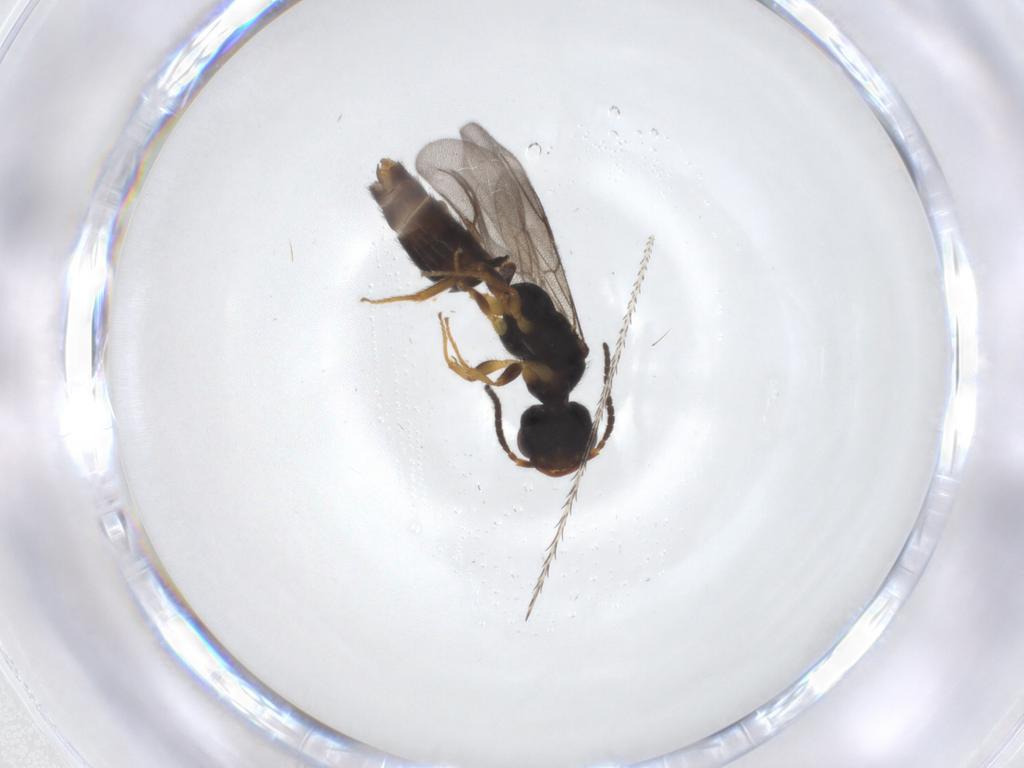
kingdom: Animalia
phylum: Arthropoda
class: Insecta
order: Hymenoptera
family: Bethylidae
